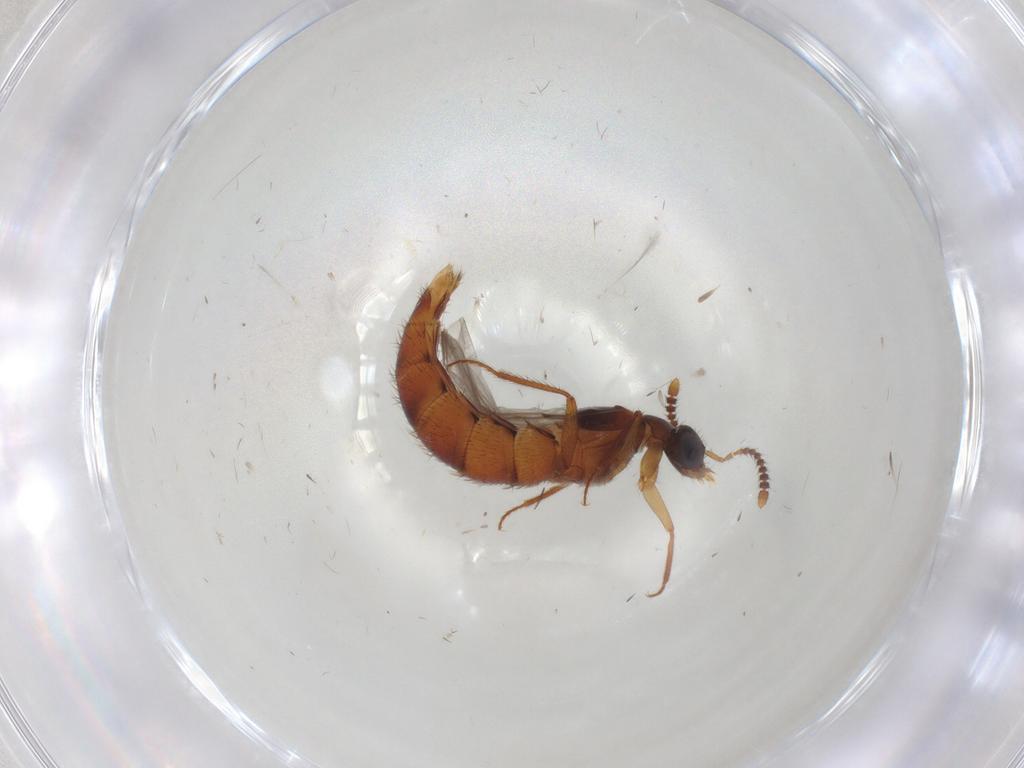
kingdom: Animalia
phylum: Arthropoda
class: Insecta
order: Coleoptera
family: Staphylinidae
